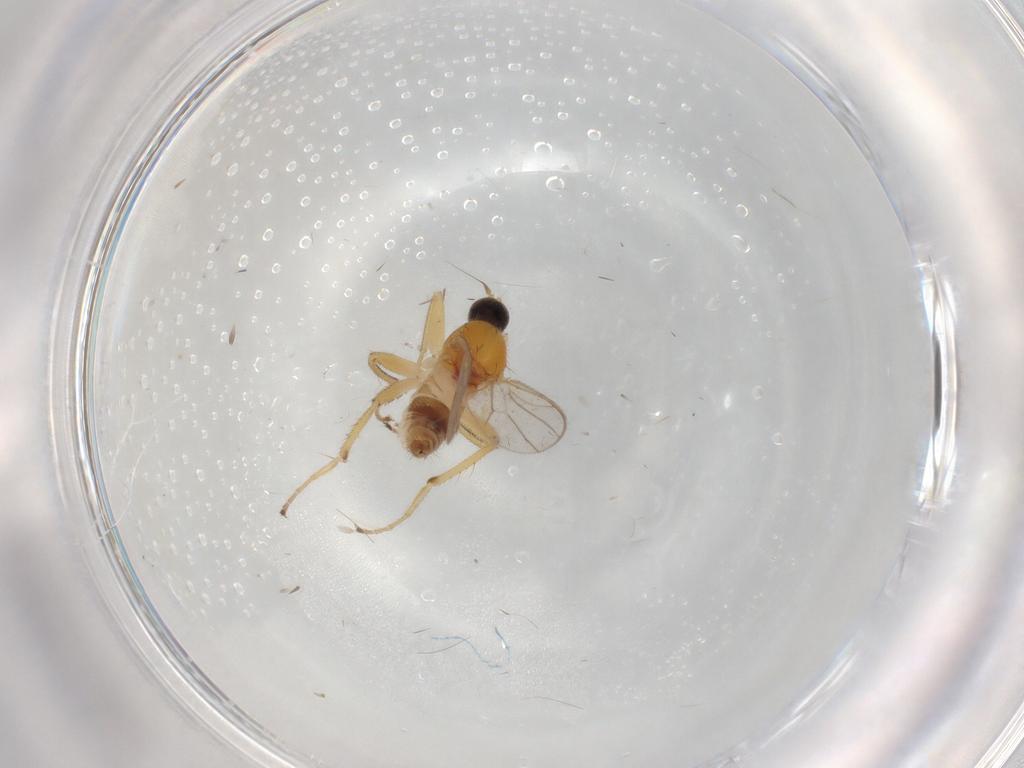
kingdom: Animalia
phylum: Arthropoda
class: Insecta
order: Diptera
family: Hybotidae
